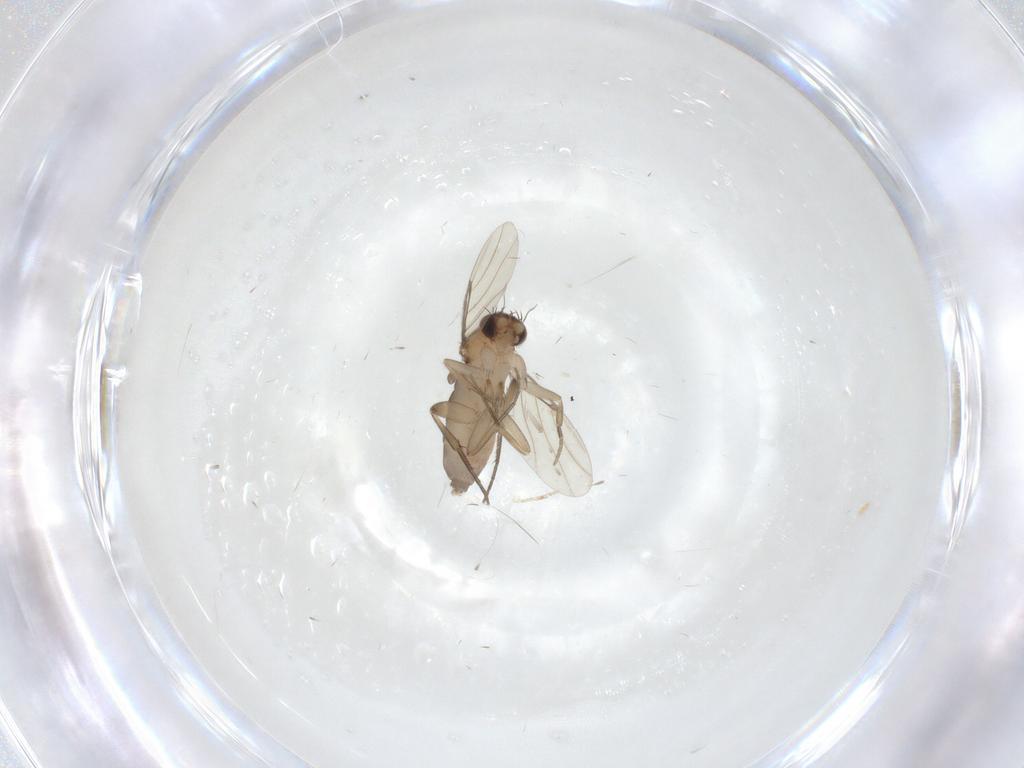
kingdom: Animalia
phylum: Arthropoda
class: Insecta
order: Diptera
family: Phoridae
